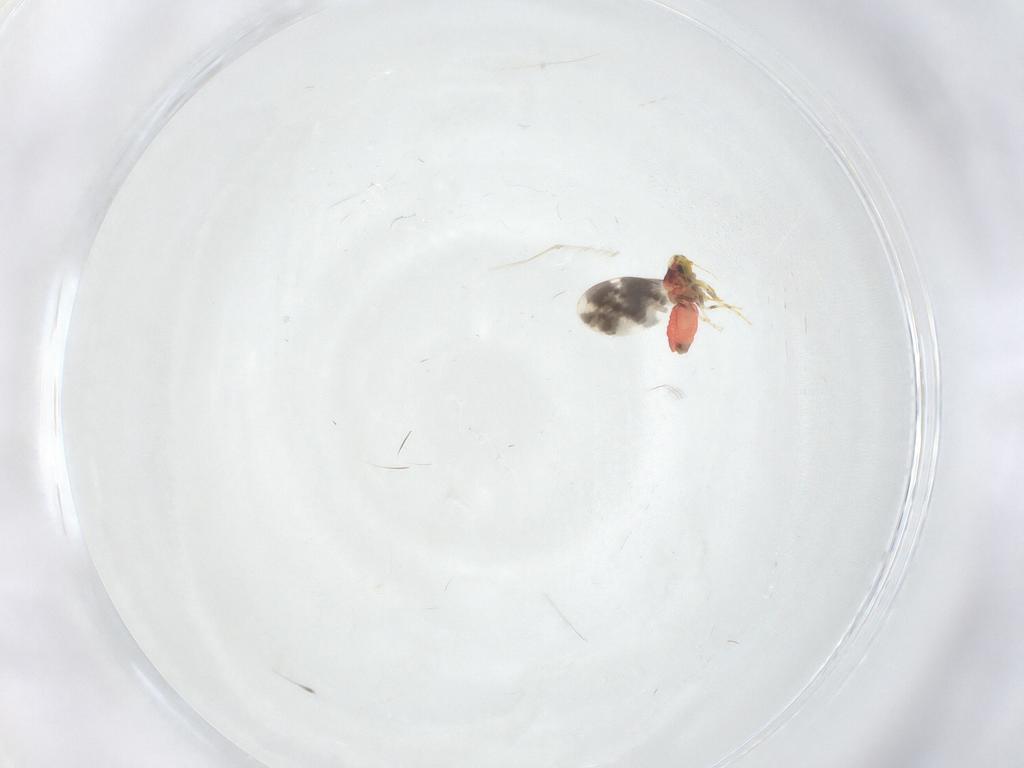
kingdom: Animalia
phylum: Arthropoda
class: Insecta
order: Hemiptera
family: Aleyrodidae
